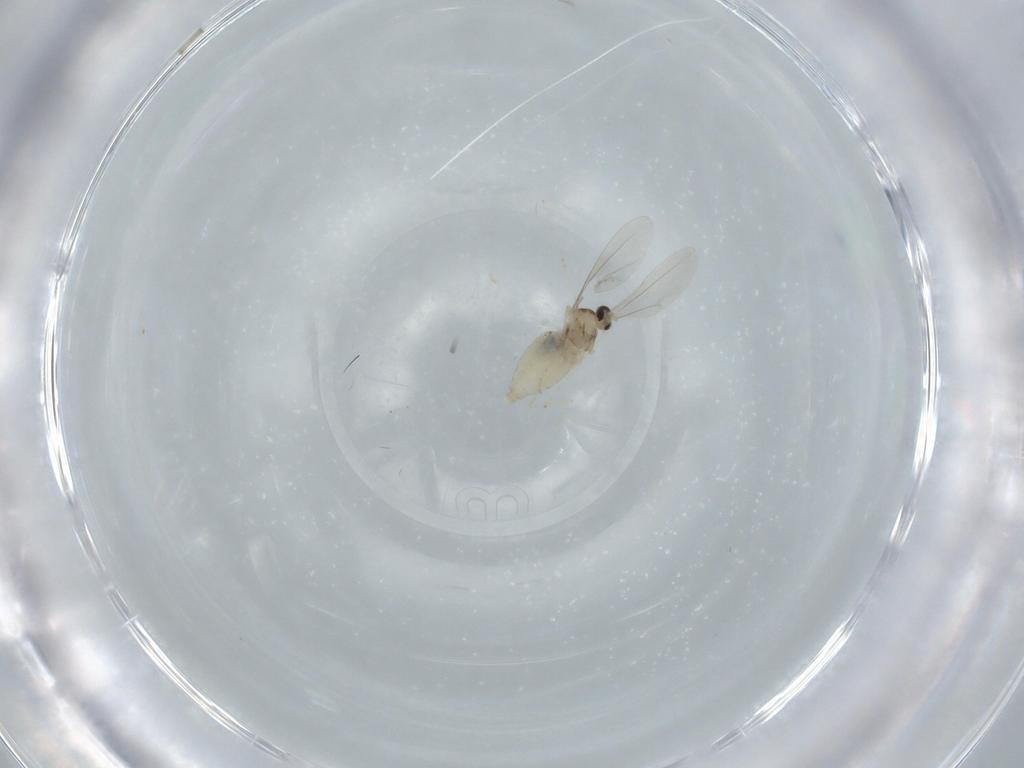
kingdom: Animalia
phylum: Arthropoda
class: Insecta
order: Diptera
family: Cecidomyiidae
